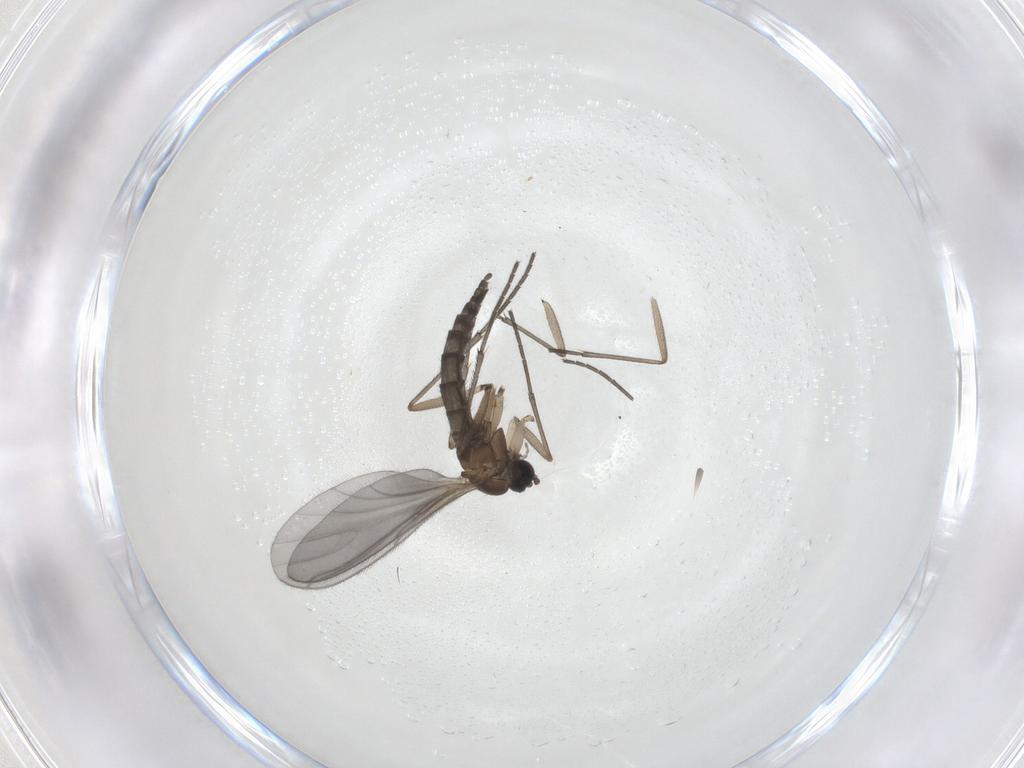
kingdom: Animalia
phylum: Arthropoda
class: Insecta
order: Diptera
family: Sciaridae
